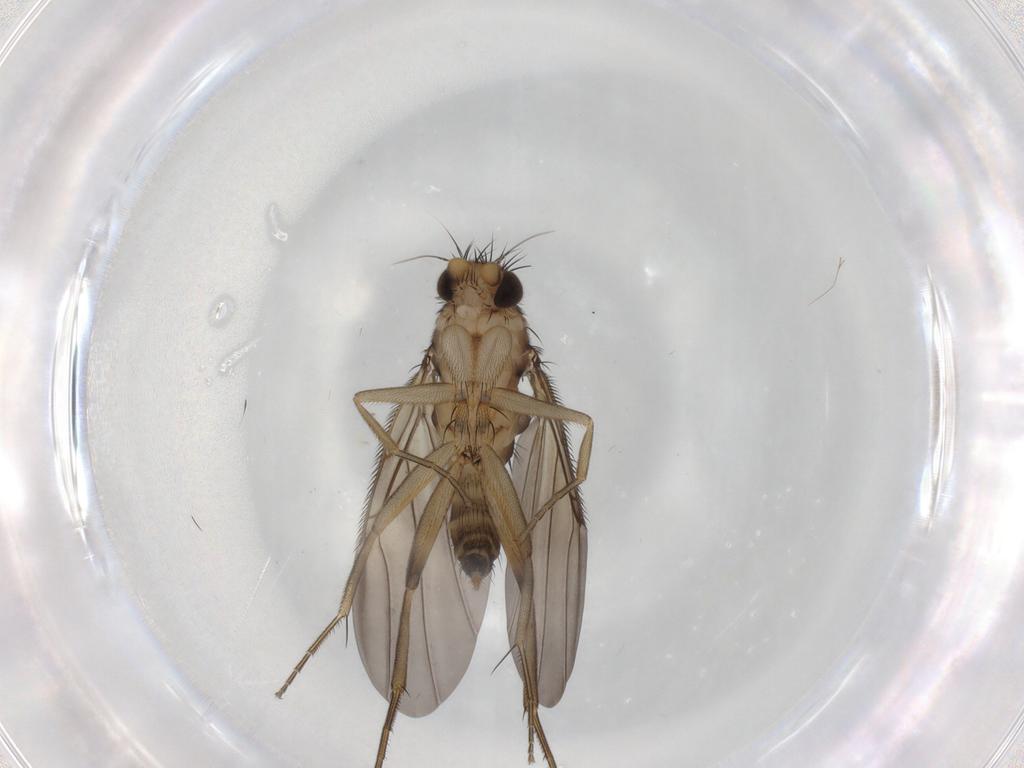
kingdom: Animalia
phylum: Arthropoda
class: Insecta
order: Diptera
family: Phoridae
